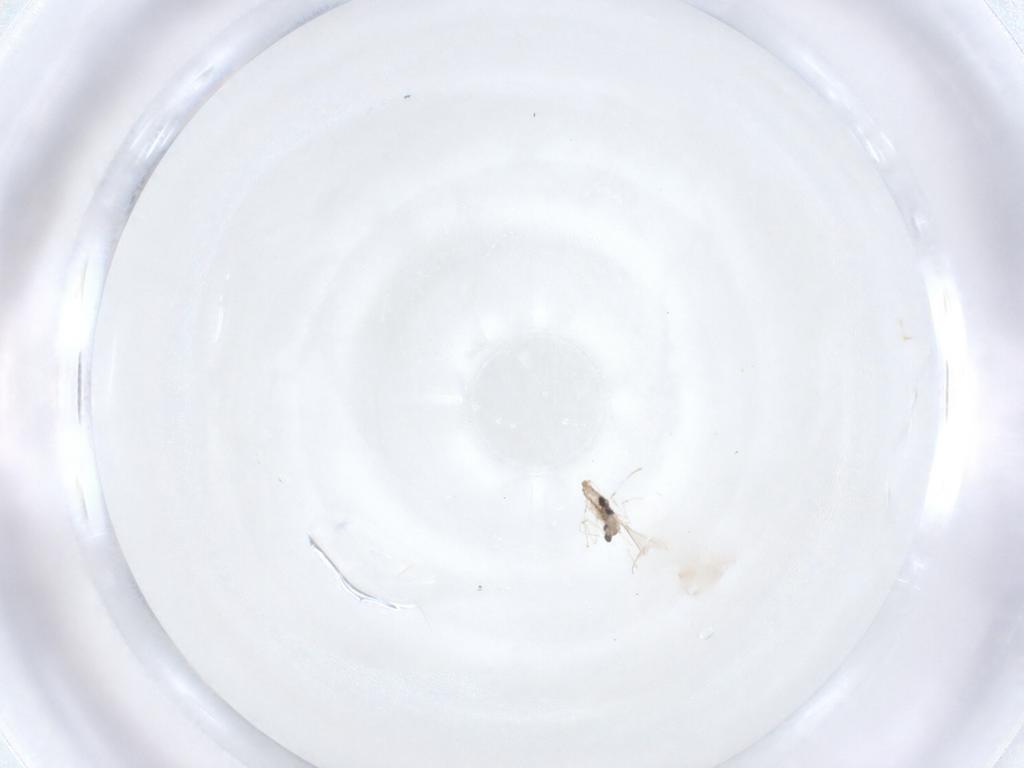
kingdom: Animalia
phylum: Arthropoda
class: Insecta
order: Diptera
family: Cecidomyiidae
